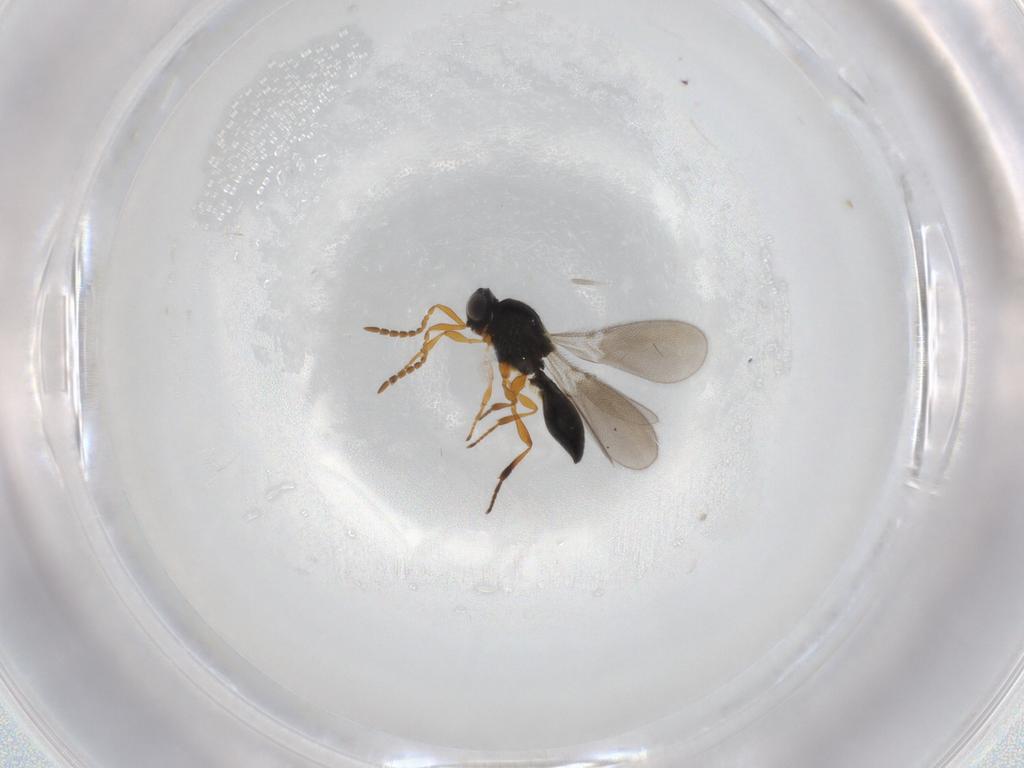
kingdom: Animalia
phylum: Arthropoda
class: Insecta
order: Hymenoptera
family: Platygastridae
